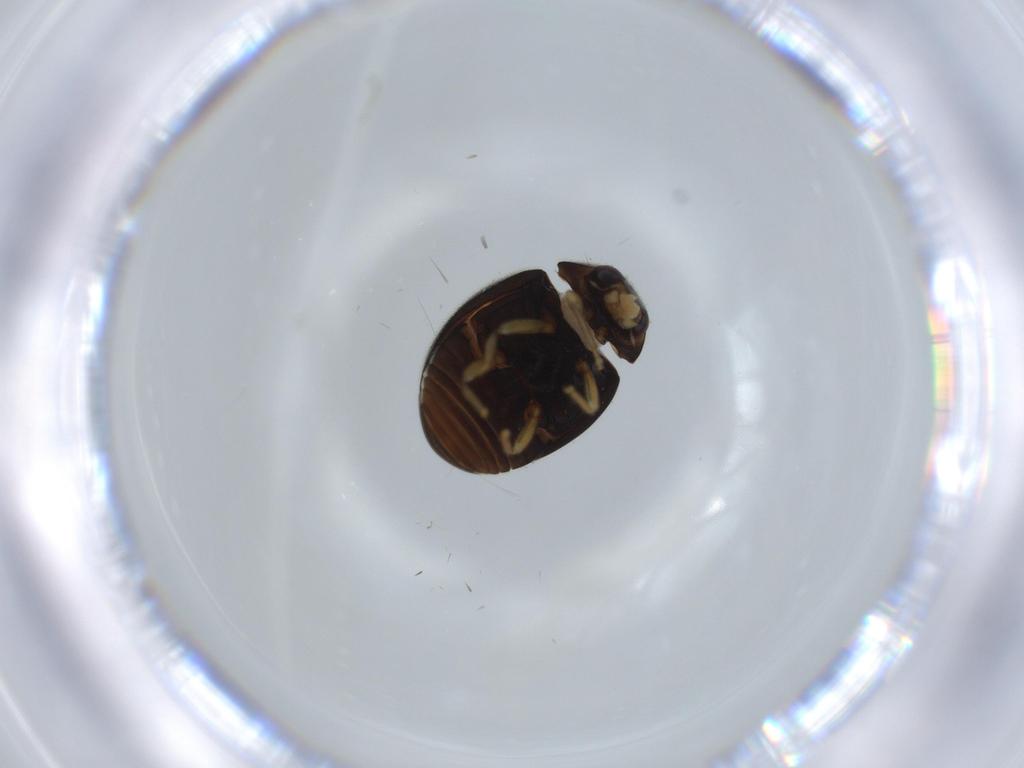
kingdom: Animalia
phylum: Arthropoda
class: Insecta
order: Coleoptera
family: Coccinellidae
